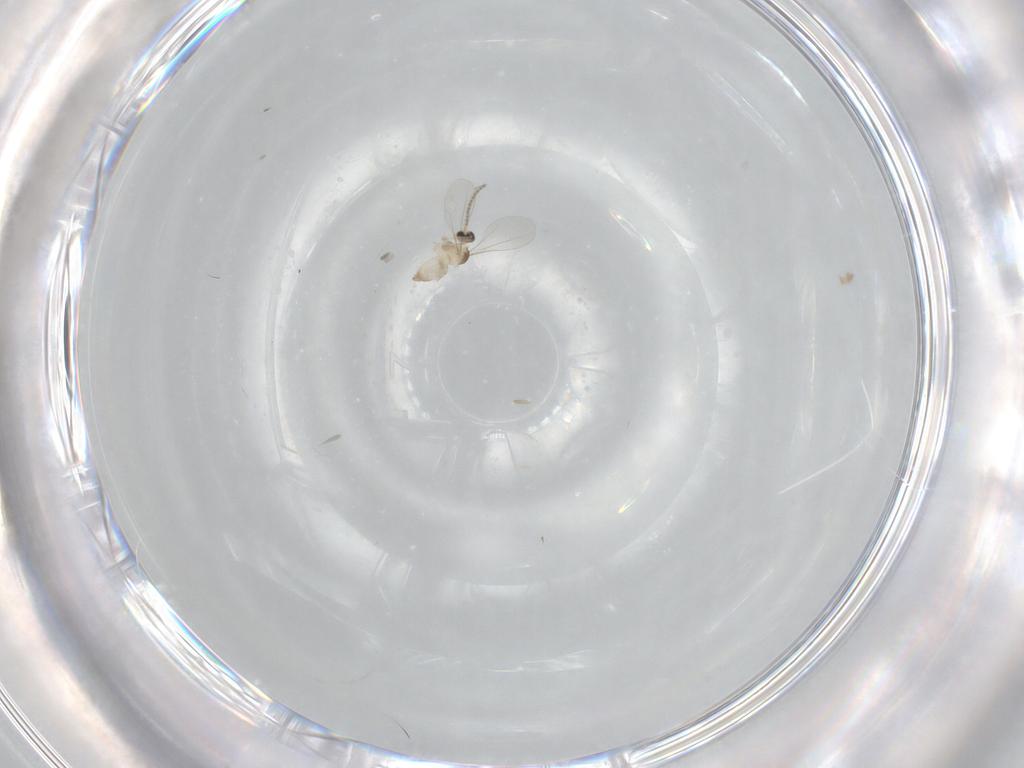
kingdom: Animalia
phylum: Arthropoda
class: Insecta
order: Diptera
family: Cecidomyiidae
